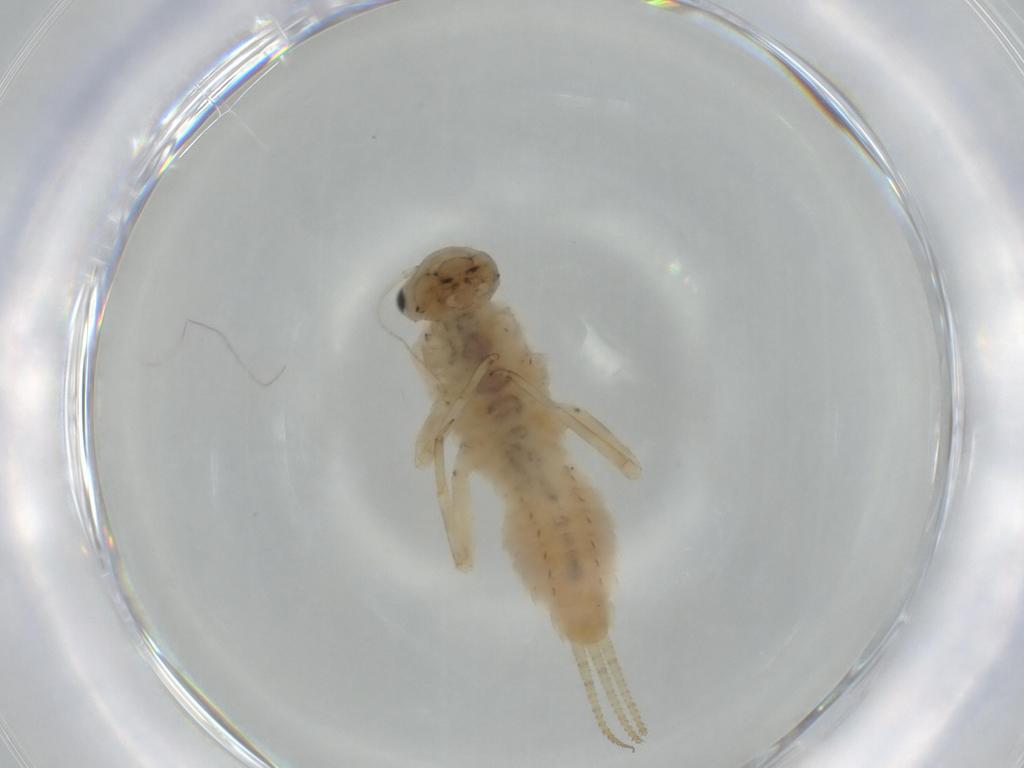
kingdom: Animalia
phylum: Arthropoda
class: Insecta
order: Ephemeroptera
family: Ephemerellidae
